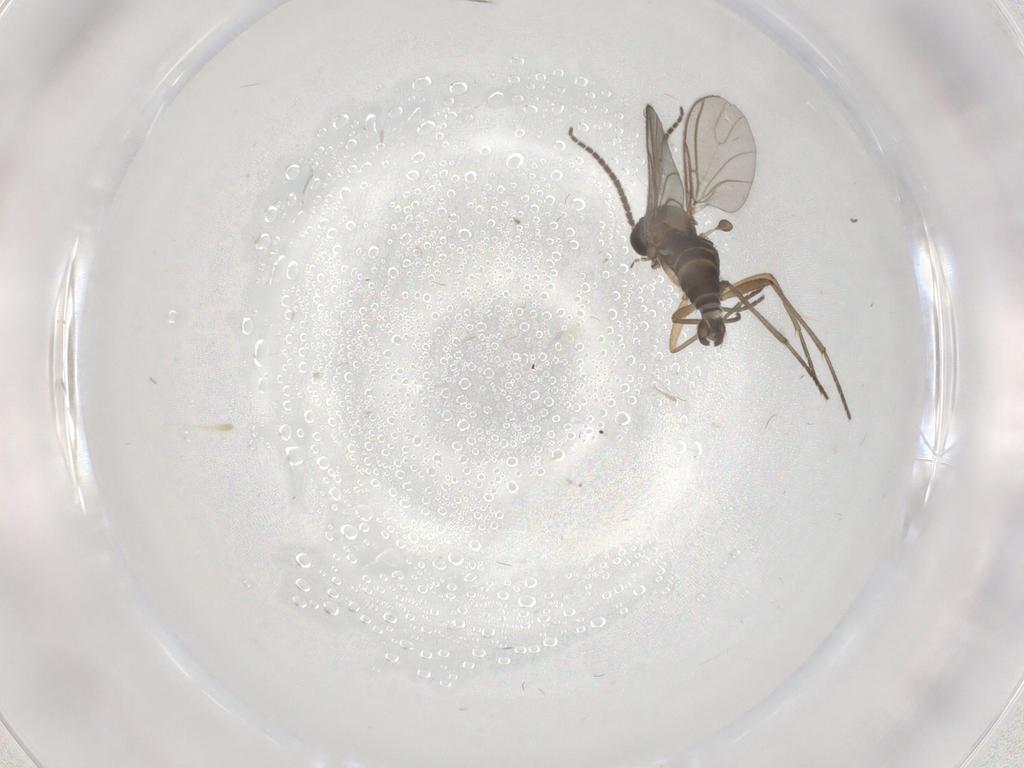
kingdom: Animalia
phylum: Arthropoda
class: Insecta
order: Diptera
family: Sciaridae
